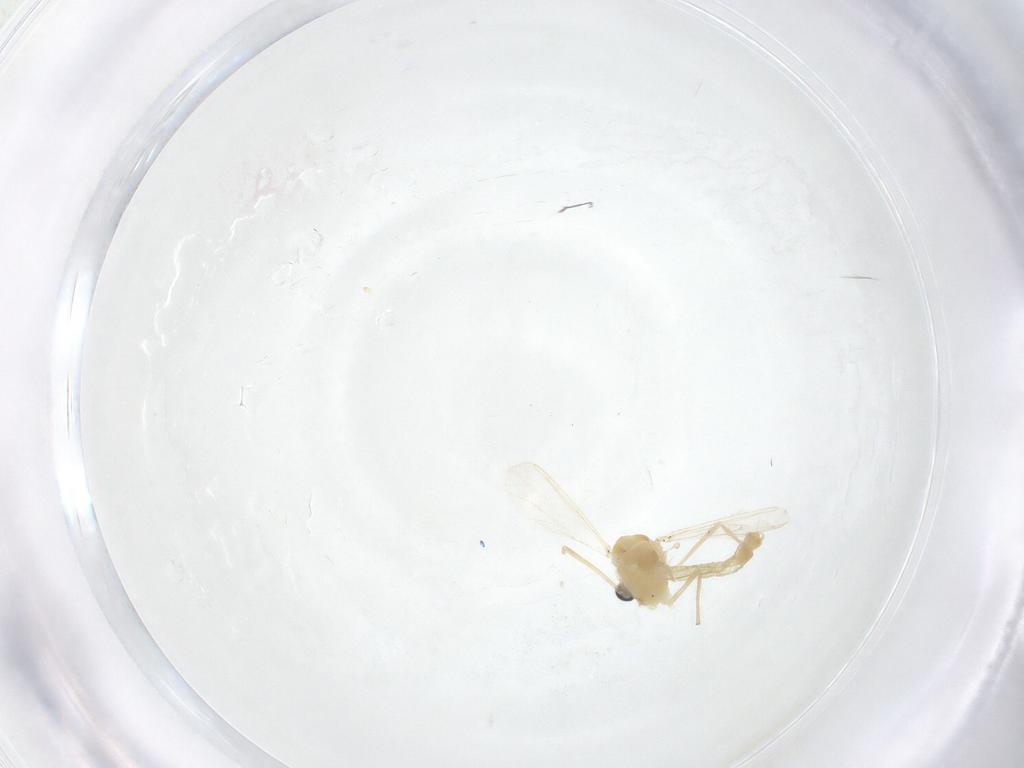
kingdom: Animalia
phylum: Arthropoda
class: Insecta
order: Diptera
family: Chironomidae
